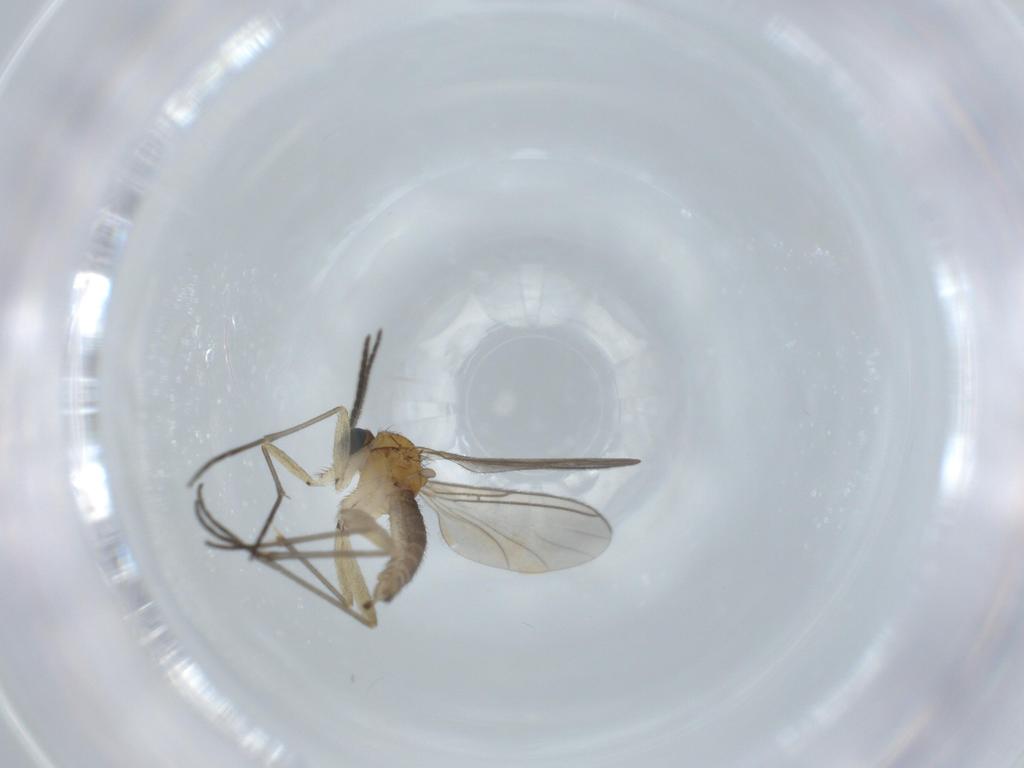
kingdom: Animalia
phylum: Arthropoda
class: Insecta
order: Diptera
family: Sciaridae
